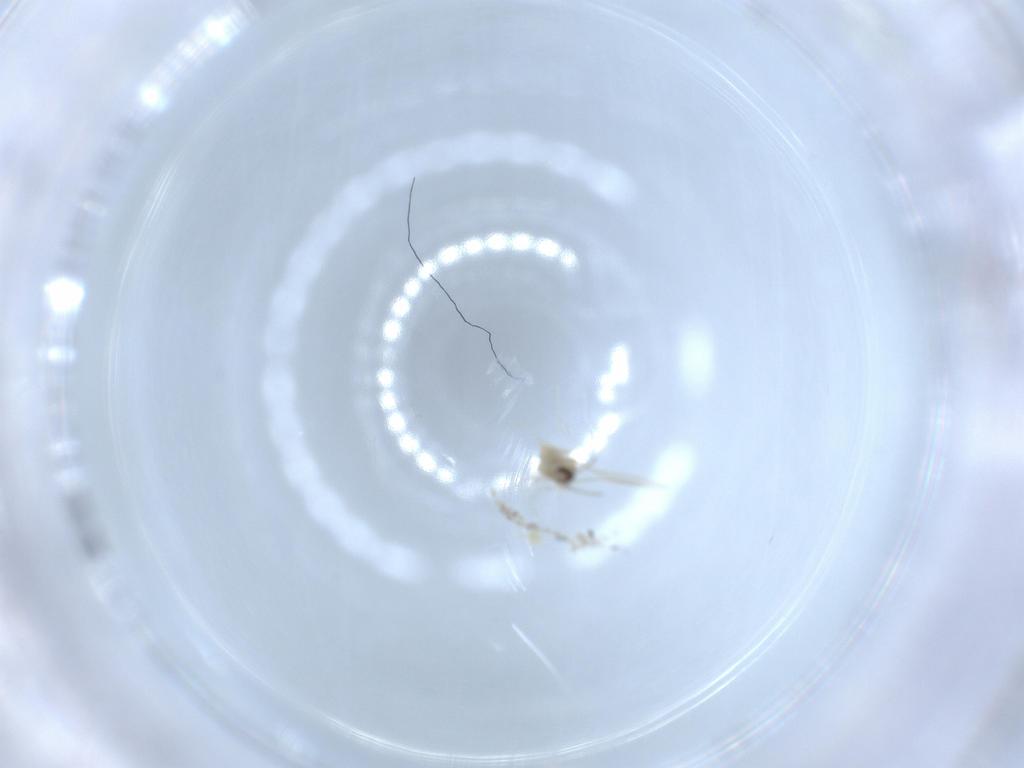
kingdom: Animalia
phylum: Arthropoda
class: Insecta
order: Diptera
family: Cecidomyiidae
